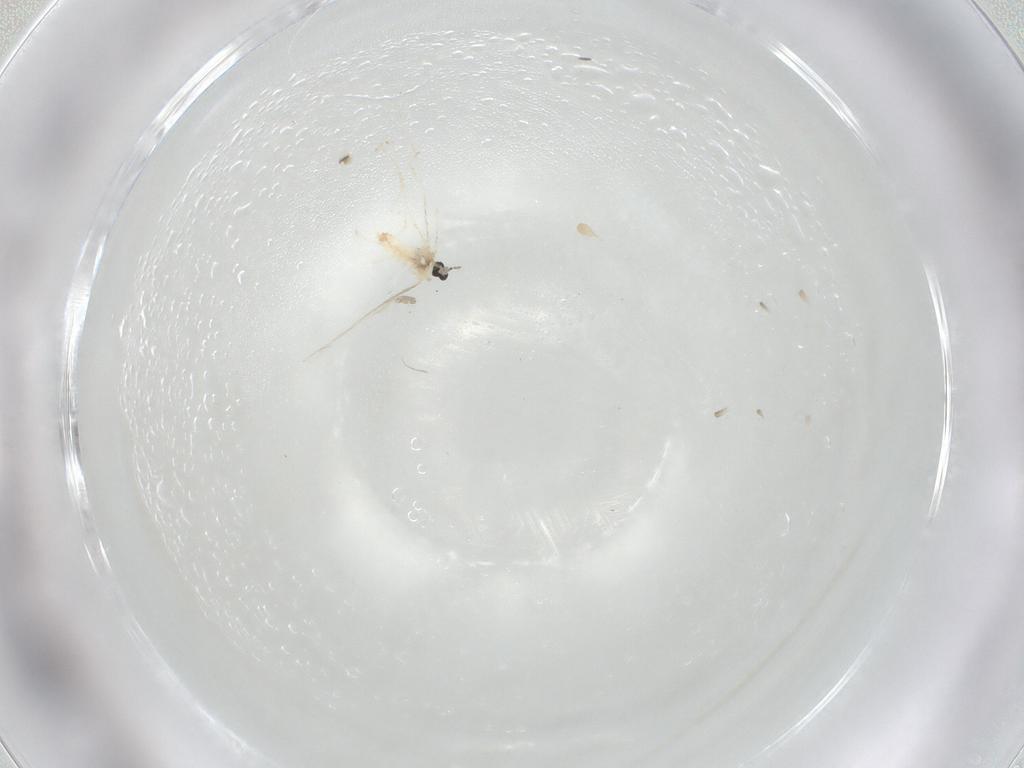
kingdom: Animalia
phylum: Arthropoda
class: Insecta
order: Diptera
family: Cecidomyiidae
